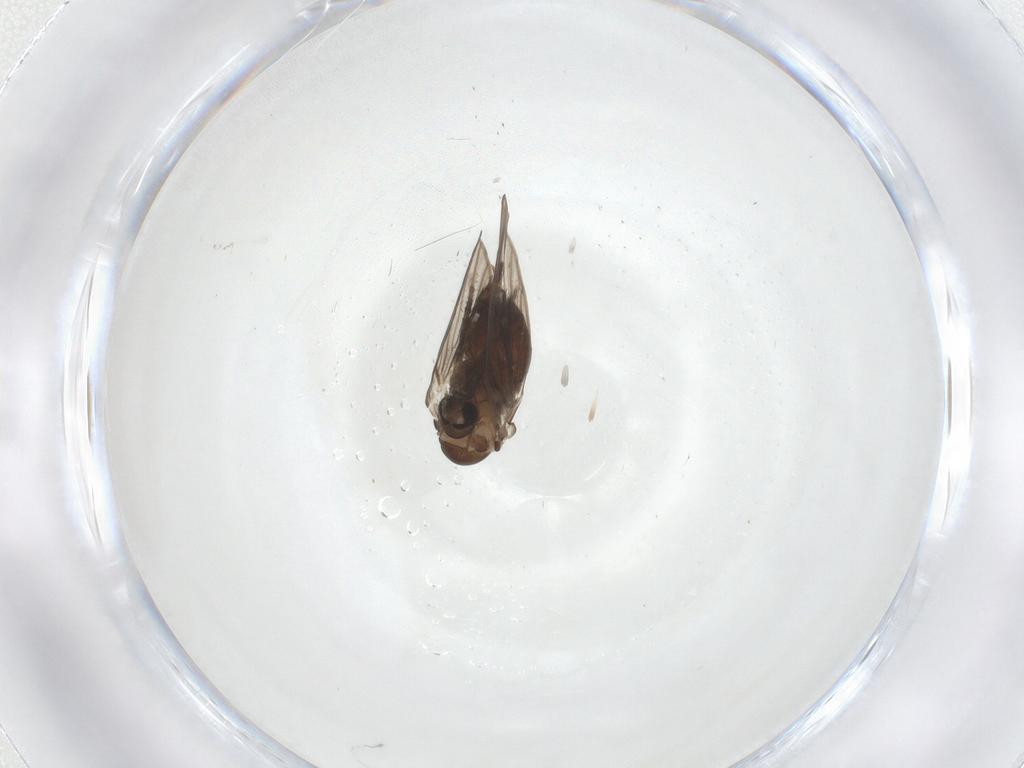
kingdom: Animalia
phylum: Arthropoda
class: Insecta
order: Diptera
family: Psychodidae
